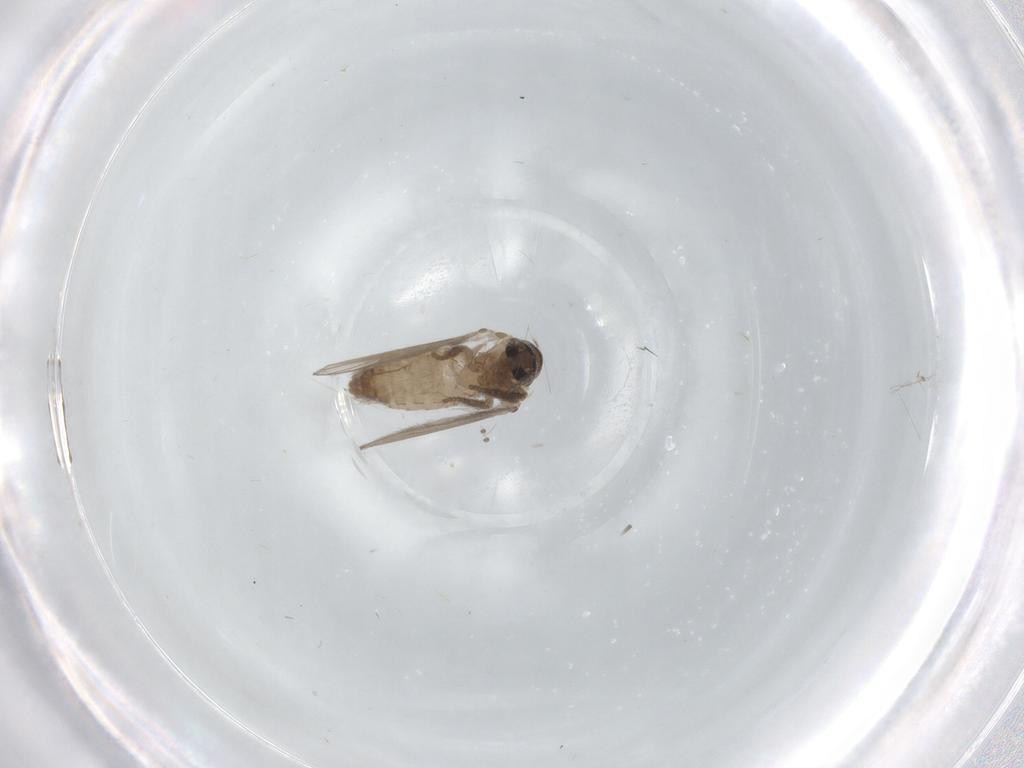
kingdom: Animalia
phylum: Arthropoda
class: Insecta
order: Diptera
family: Psychodidae
